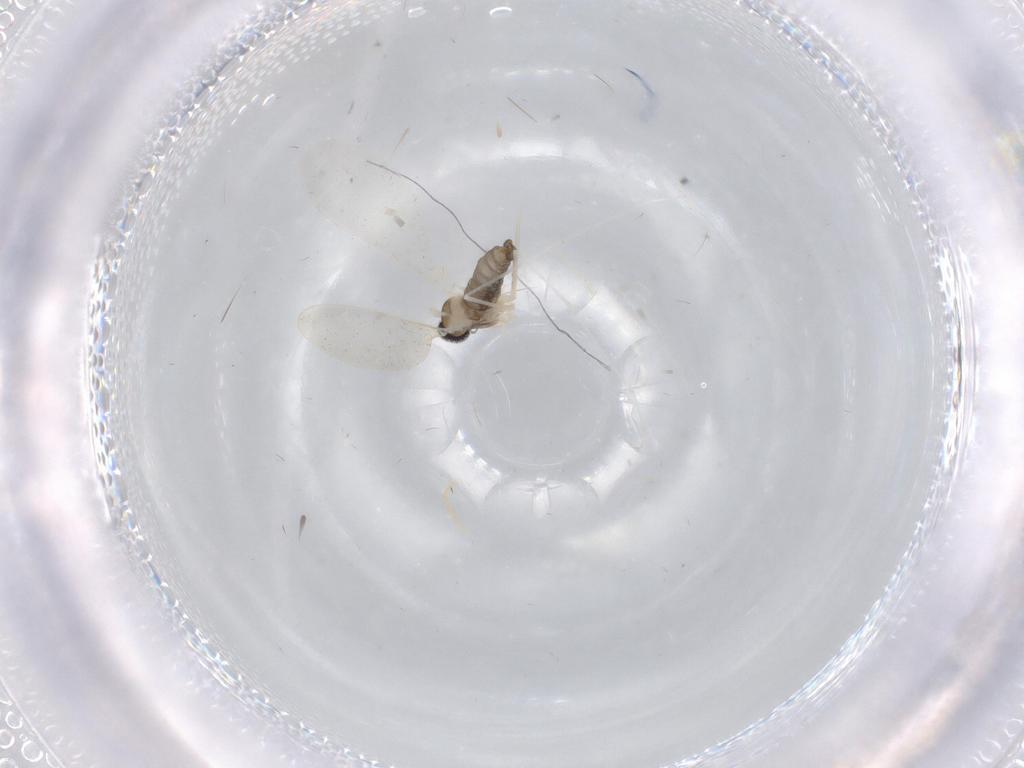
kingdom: Animalia
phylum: Arthropoda
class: Insecta
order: Diptera
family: Cecidomyiidae
